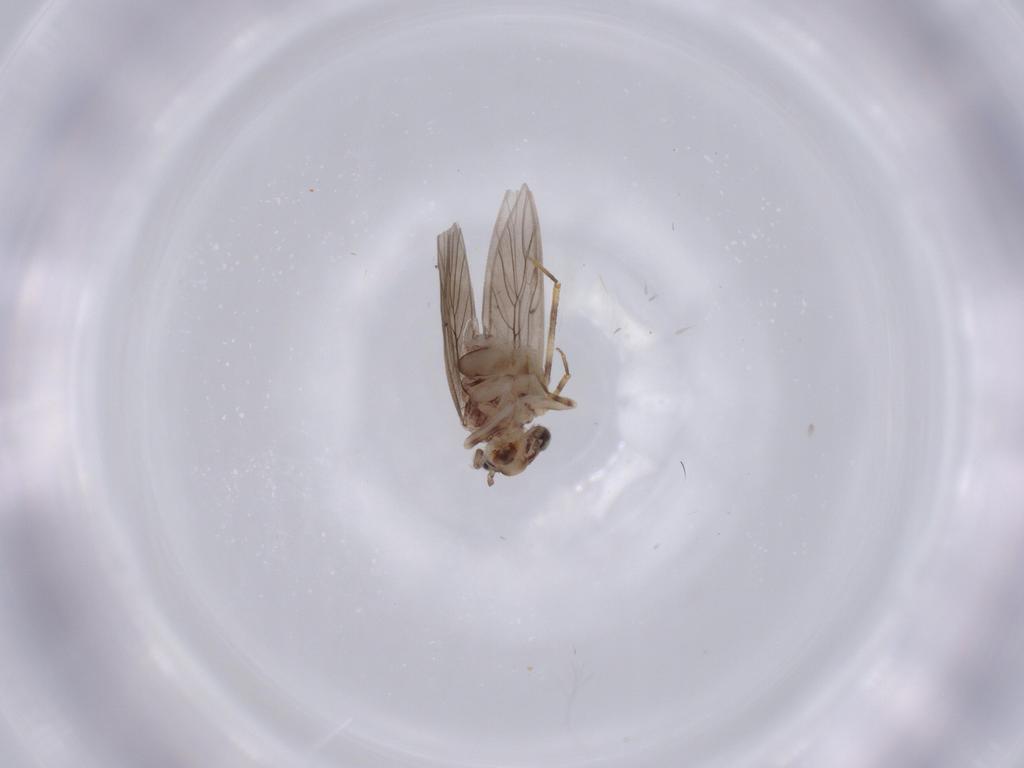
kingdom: Animalia
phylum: Arthropoda
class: Insecta
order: Psocodea
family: Lepidopsocidae
